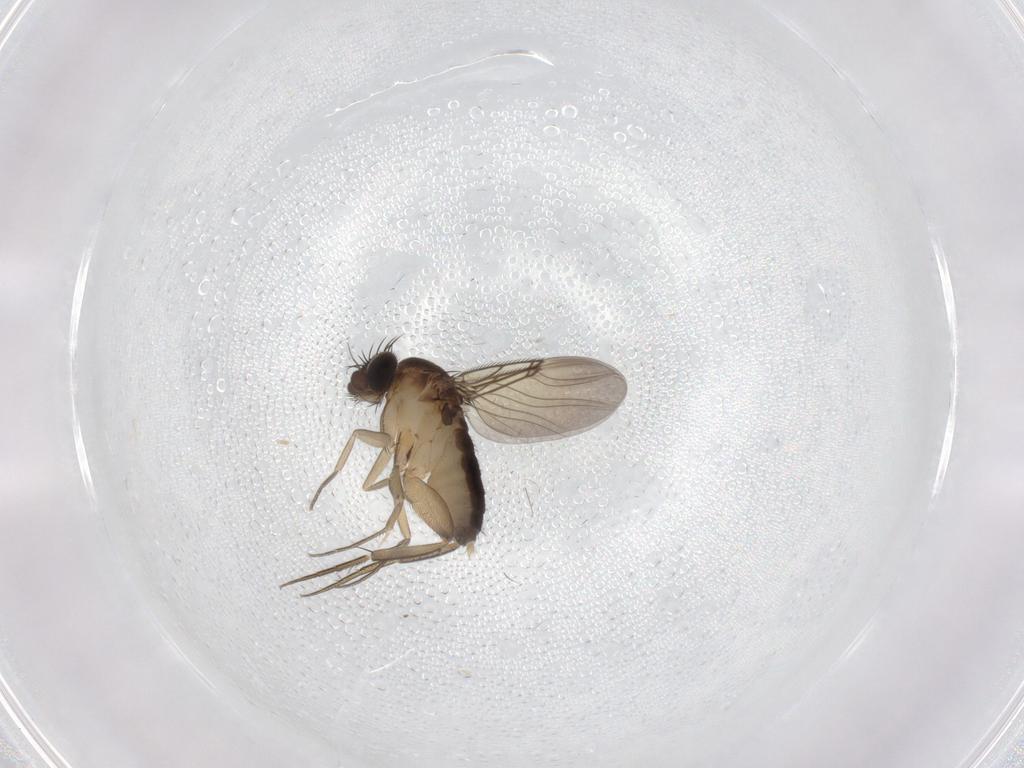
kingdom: Animalia
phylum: Arthropoda
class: Insecta
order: Diptera
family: Phoridae
